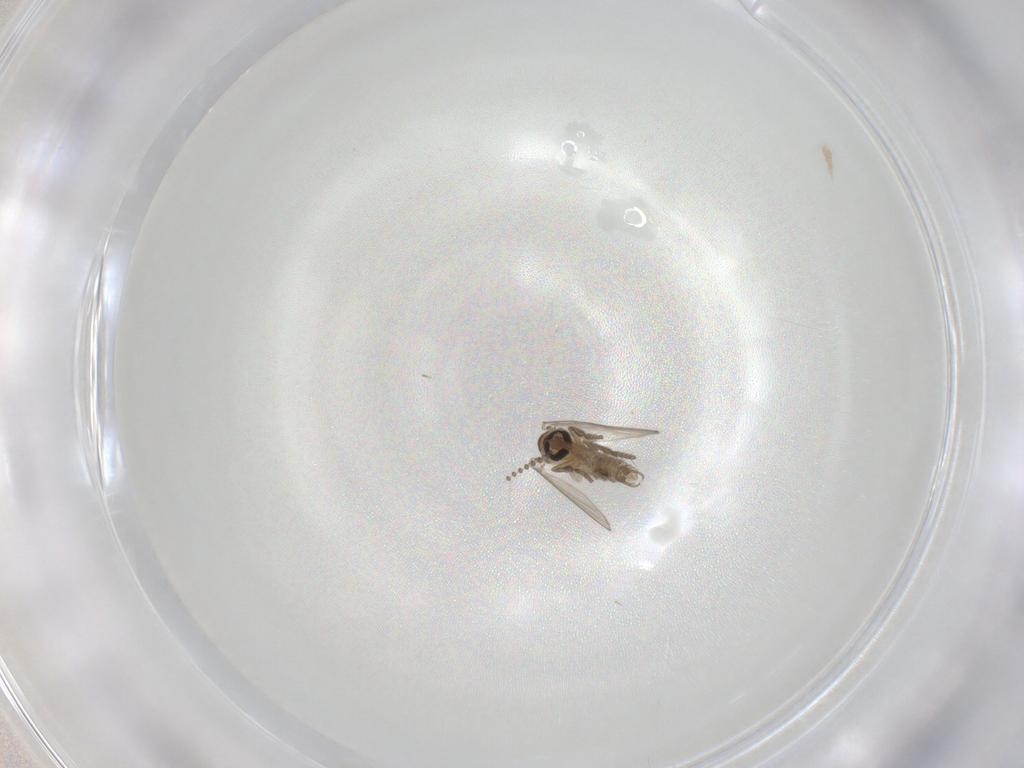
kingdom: Animalia
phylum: Arthropoda
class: Insecta
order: Diptera
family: Psychodidae
